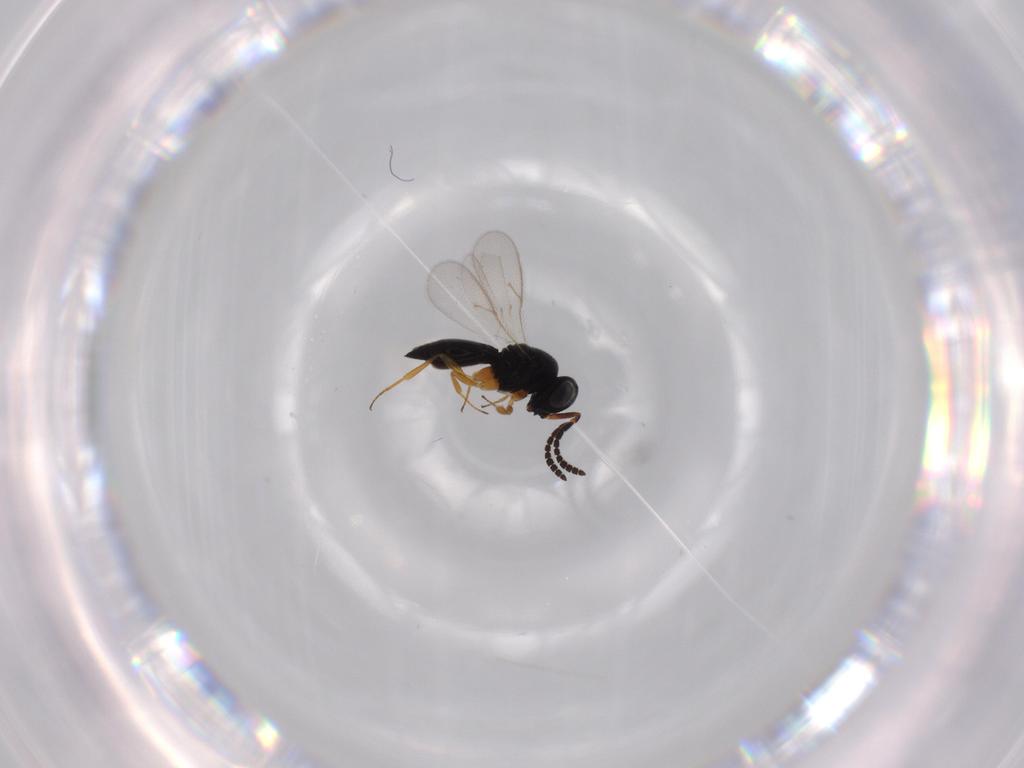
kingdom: Animalia
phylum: Arthropoda
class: Insecta
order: Hymenoptera
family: Scelionidae
